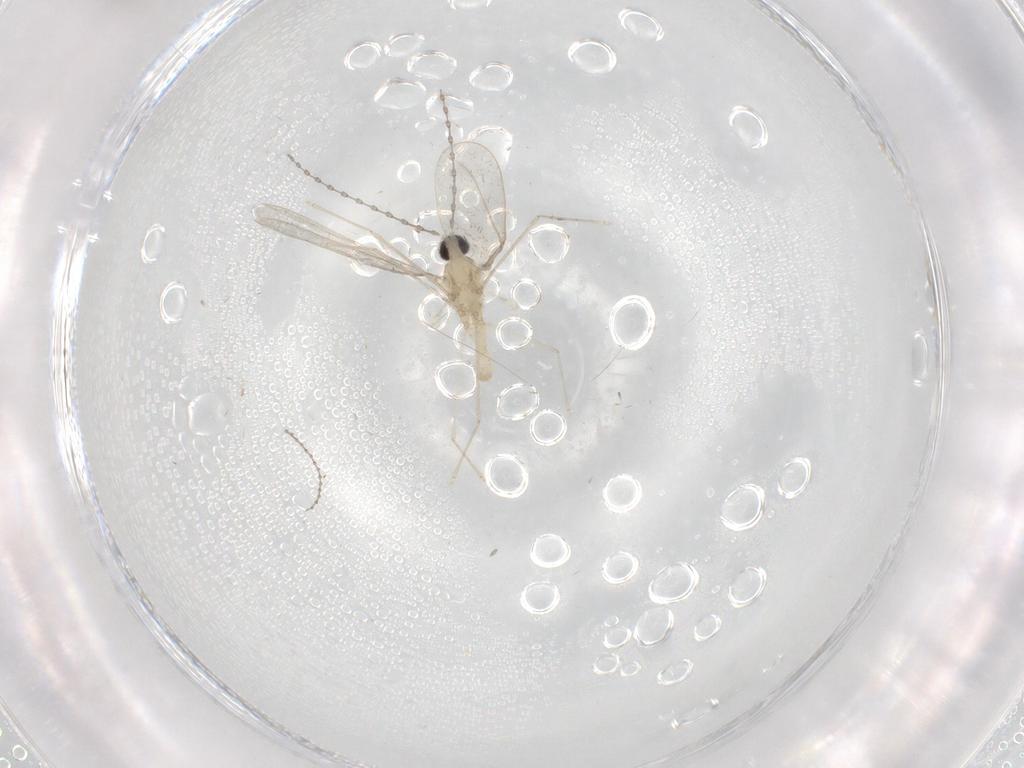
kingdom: Animalia
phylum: Arthropoda
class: Insecta
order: Diptera
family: Cecidomyiidae
